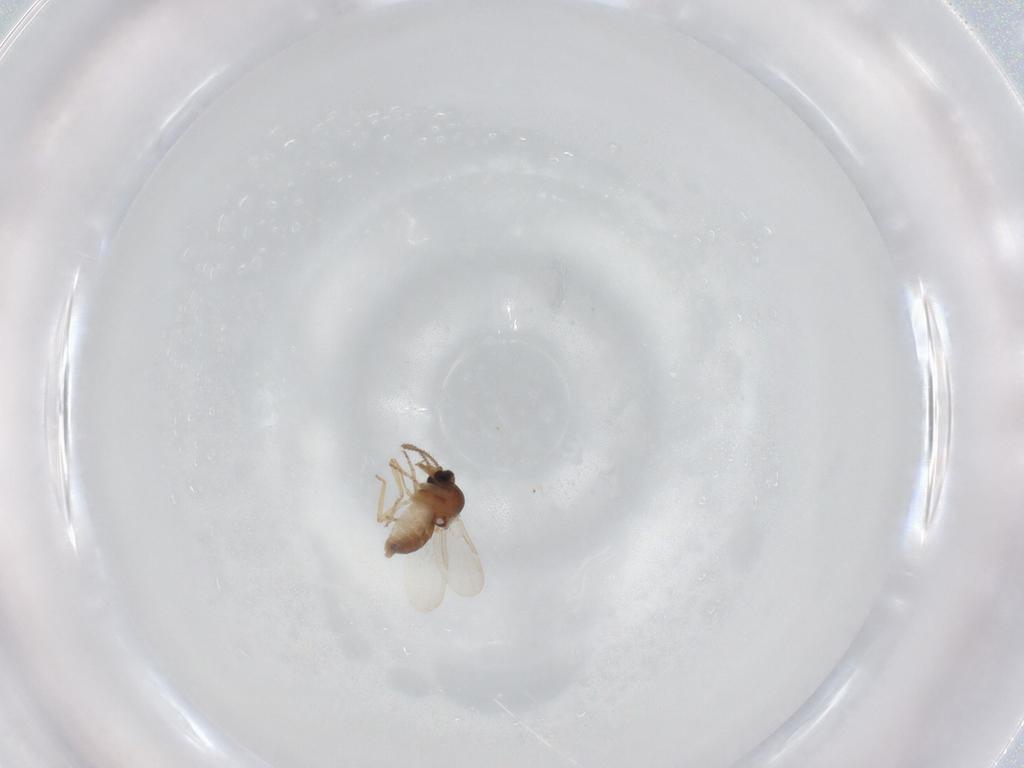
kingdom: Animalia
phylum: Arthropoda
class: Insecta
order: Diptera
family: Ceratopogonidae
